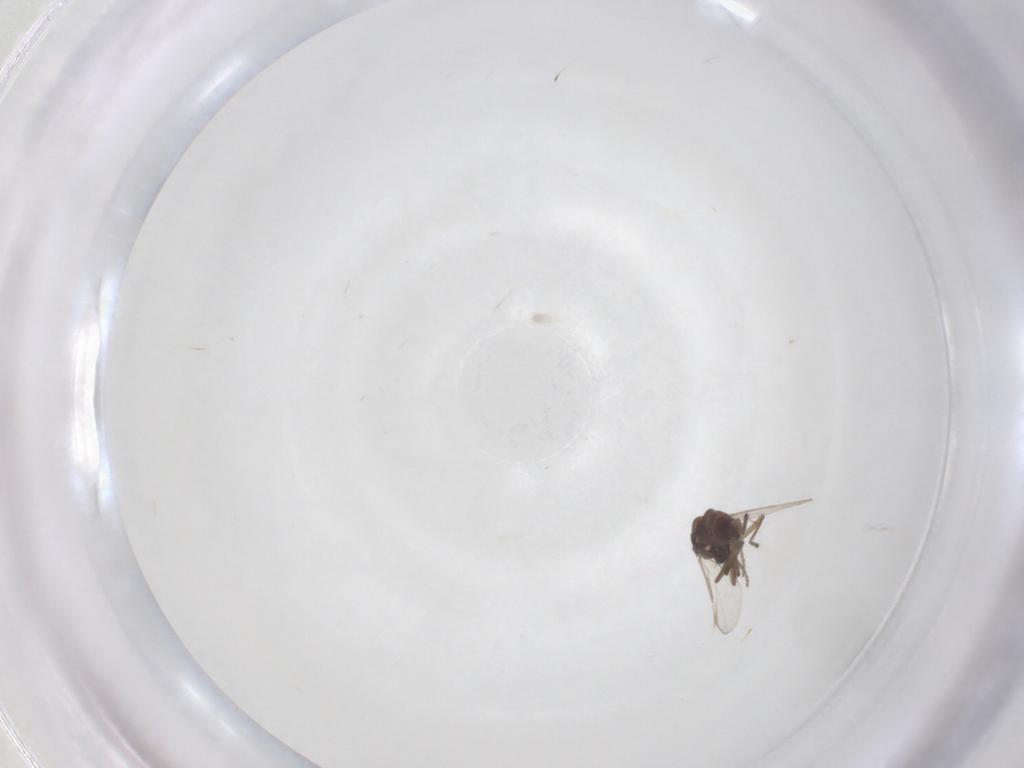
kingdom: Animalia
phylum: Arthropoda
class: Insecta
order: Diptera
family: Ceratopogonidae
